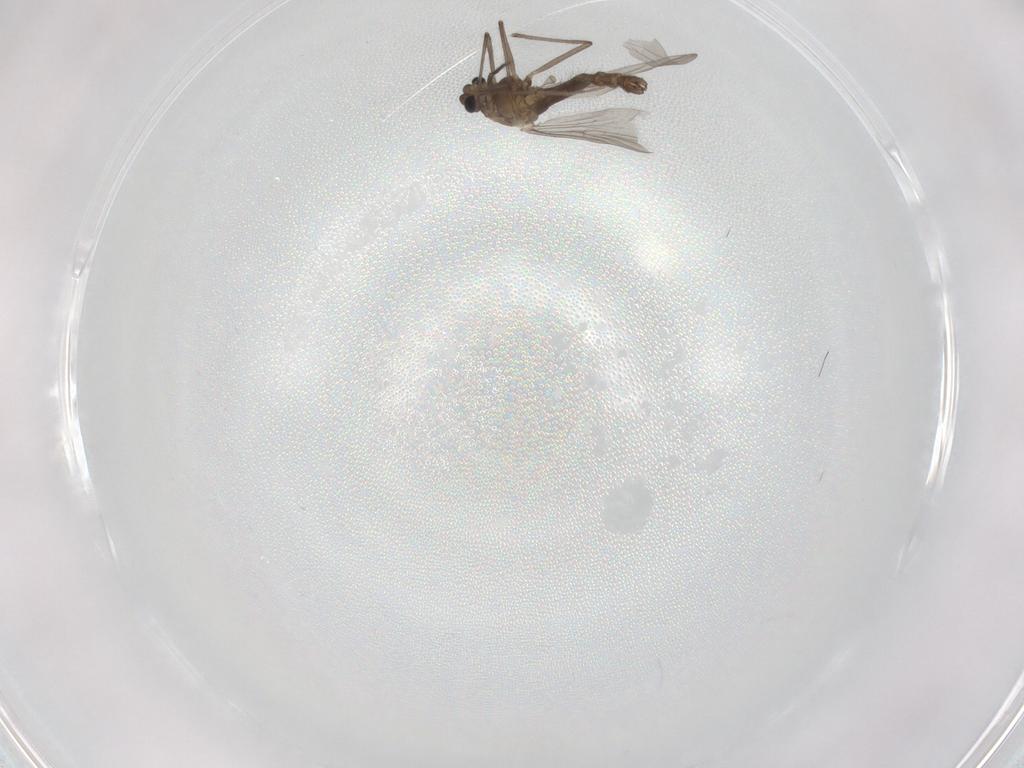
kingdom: Animalia
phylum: Arthropoda
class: Insecta
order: Diptera
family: Chironomidae
